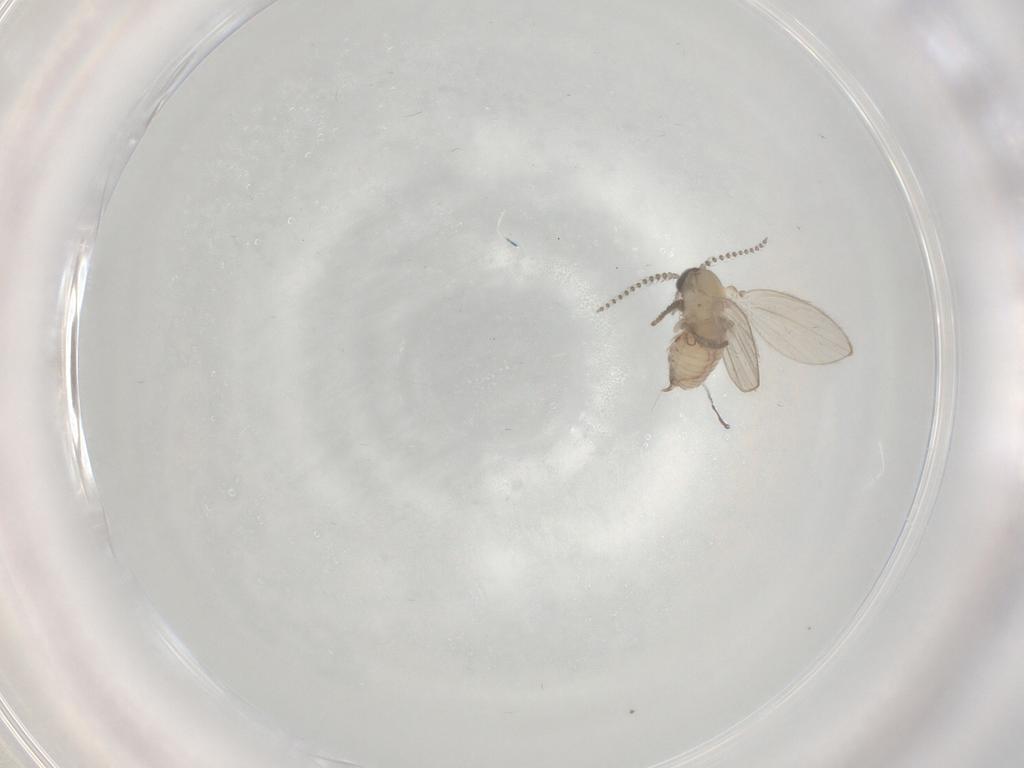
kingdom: Animalia
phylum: Arthropoda
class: Insecta
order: Diptera
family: Psychodidae
